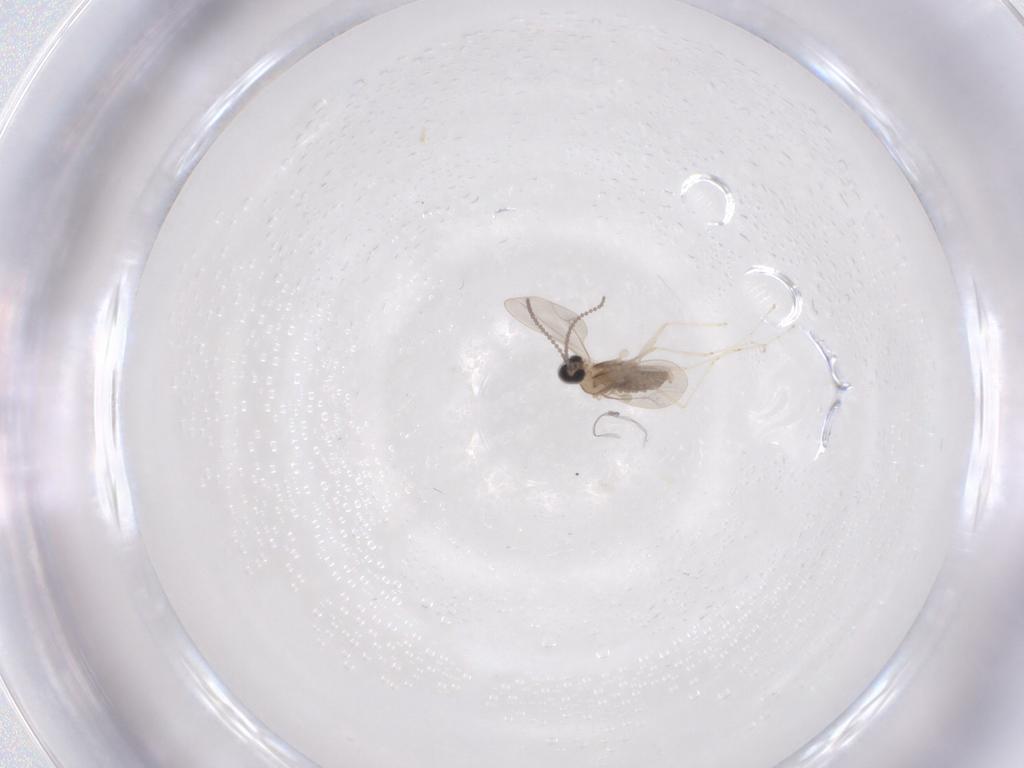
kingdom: Animalia
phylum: Arthropoda
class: Insecta
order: Diptera
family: Cecidomyiidae
